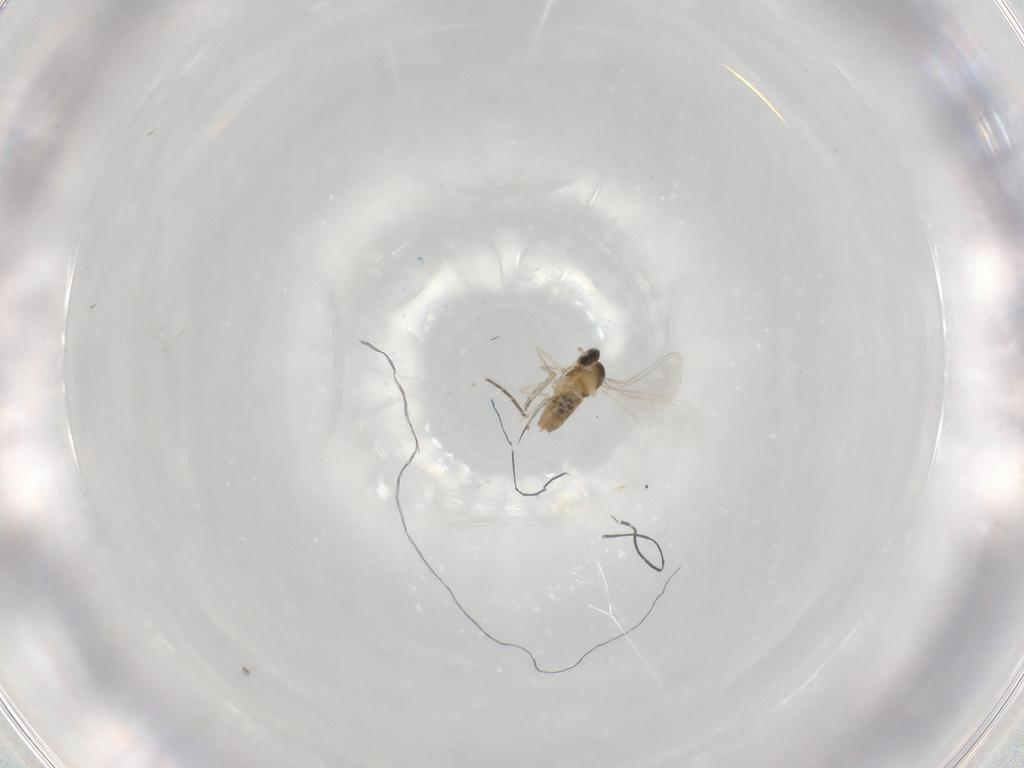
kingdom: Animalia
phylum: Arthropoda
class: Insecta
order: Diptera
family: Cecidomyiidae
